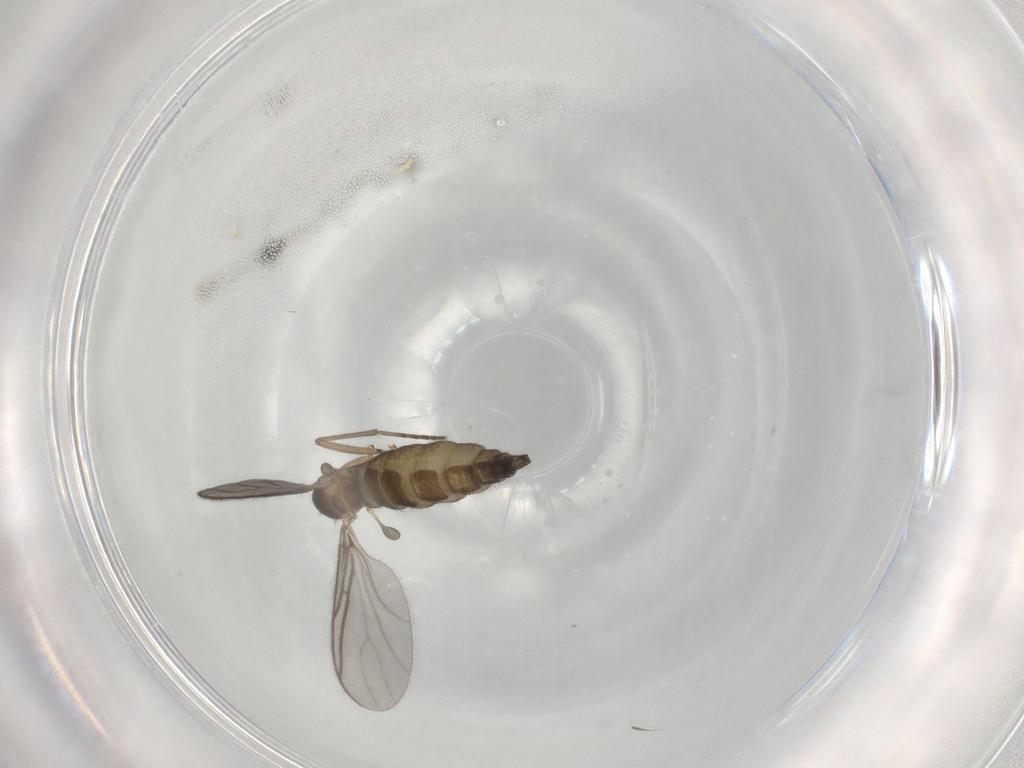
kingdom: Animalia
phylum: Arthropoda
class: Insecta
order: Diptera
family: Sciaridae
